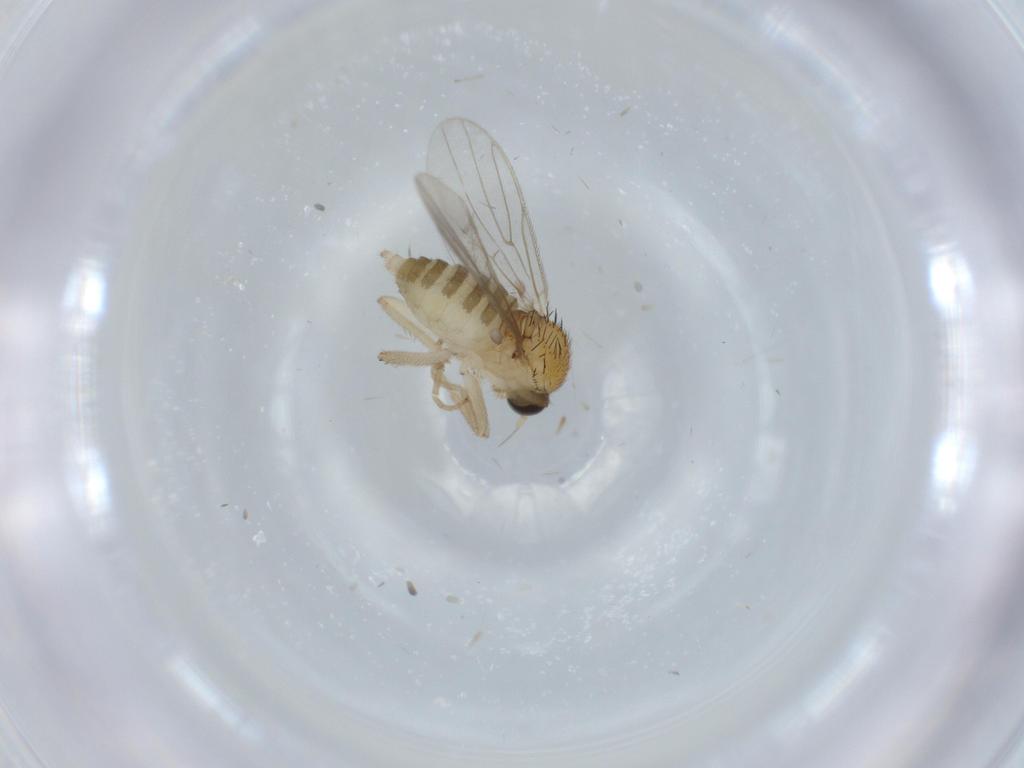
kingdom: Animalia
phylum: Arthropoda
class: Insecta
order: Diptera
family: Hybotidae
